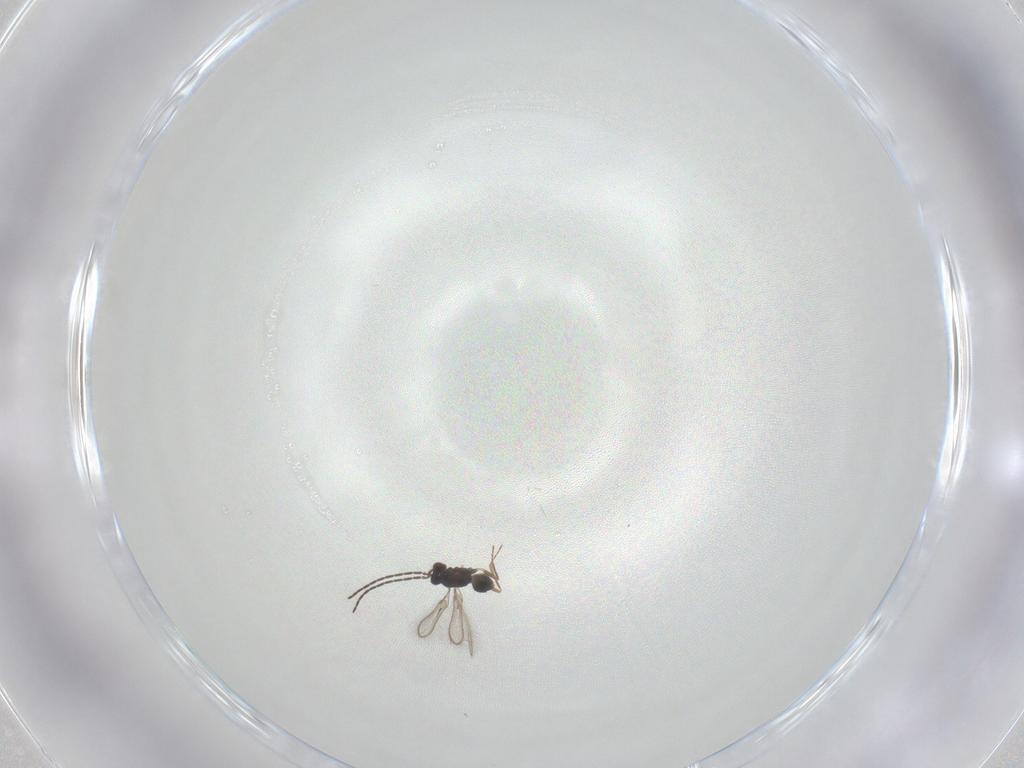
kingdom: Animalia
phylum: Arthropoda
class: Insecta
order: Hymenoptera
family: Mymaridae
